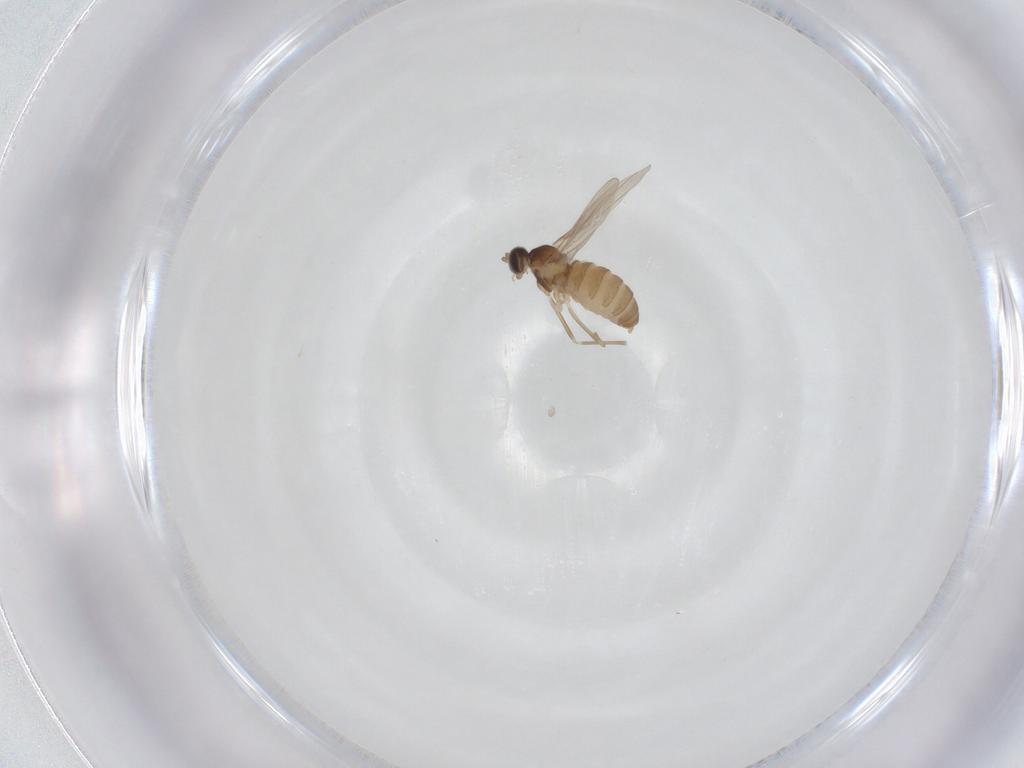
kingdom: Animalia
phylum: Arthropoda
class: Insecta
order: Diptera
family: Cecidomyiidae
